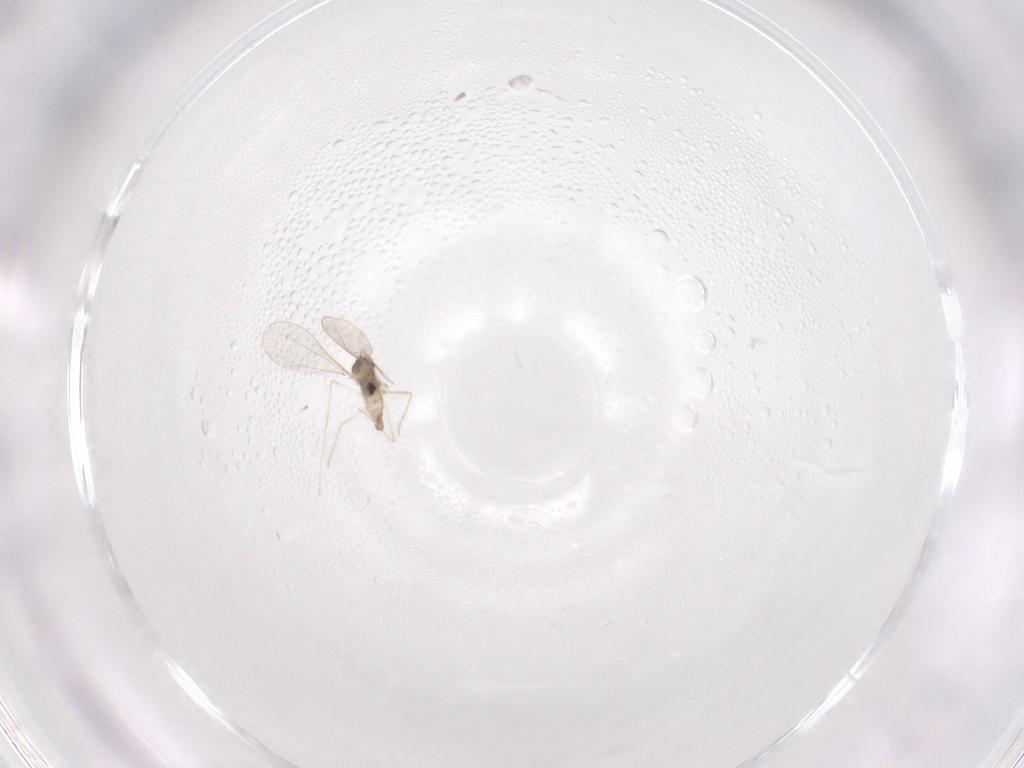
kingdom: Animalia
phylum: Arthropoda
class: Insecta
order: Diptera
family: Cecidomyiidae
